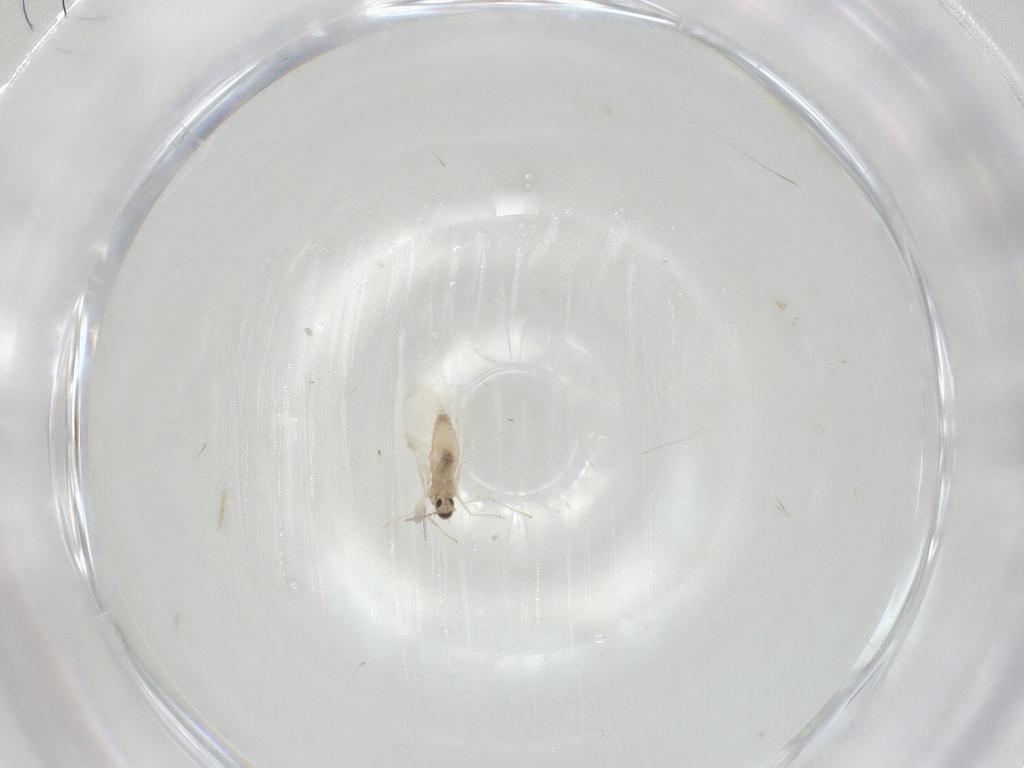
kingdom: Animalia
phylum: Arthropoda
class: Insecta
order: Diptera
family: Cecidomyiidae
